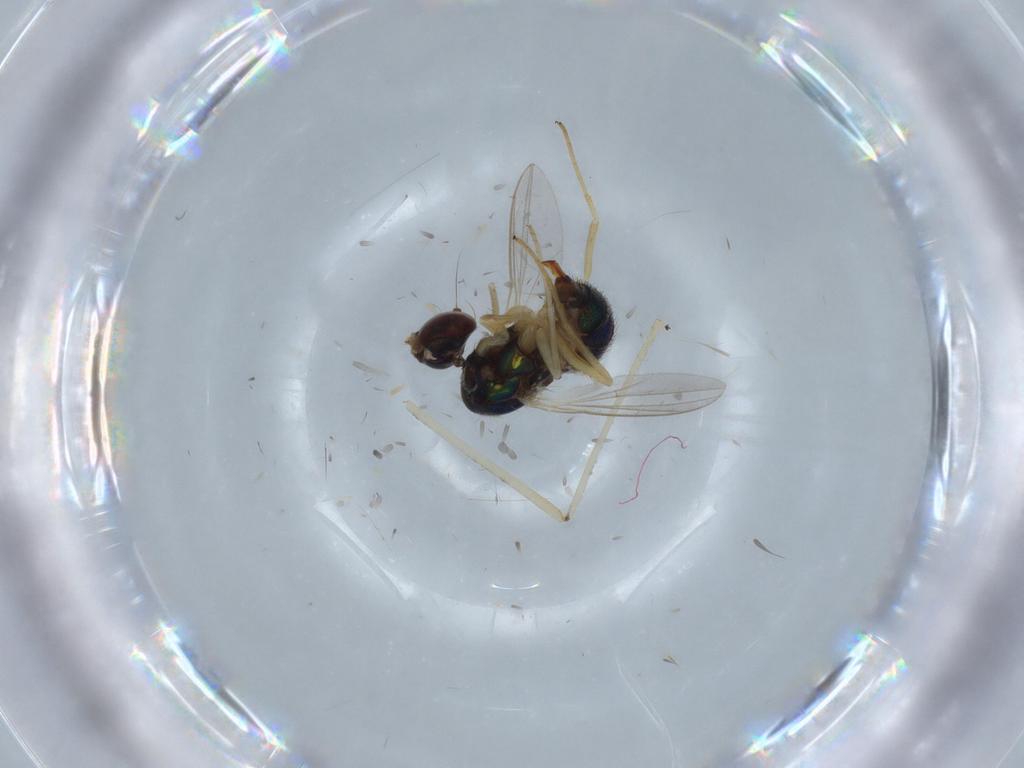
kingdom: Animalia
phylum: Arthropoda
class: Insecta
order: Diptera
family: Dolichopodidae
